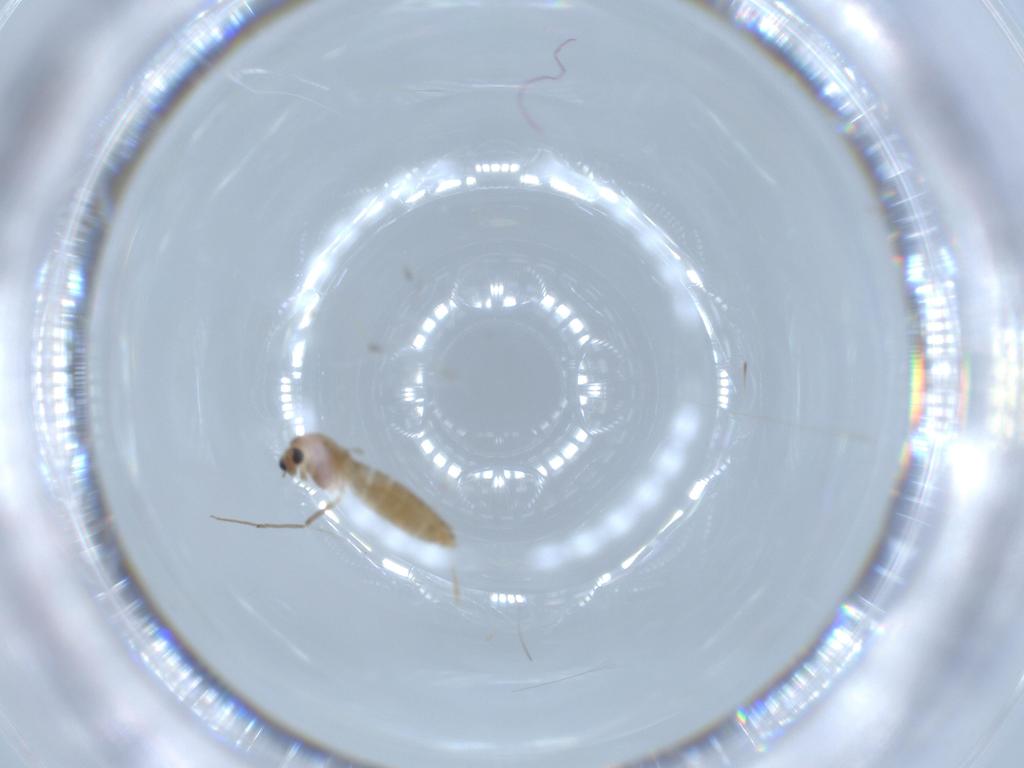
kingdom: Animalia
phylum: Arthropoda
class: Insecta
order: Diptera
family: Chironomidae
